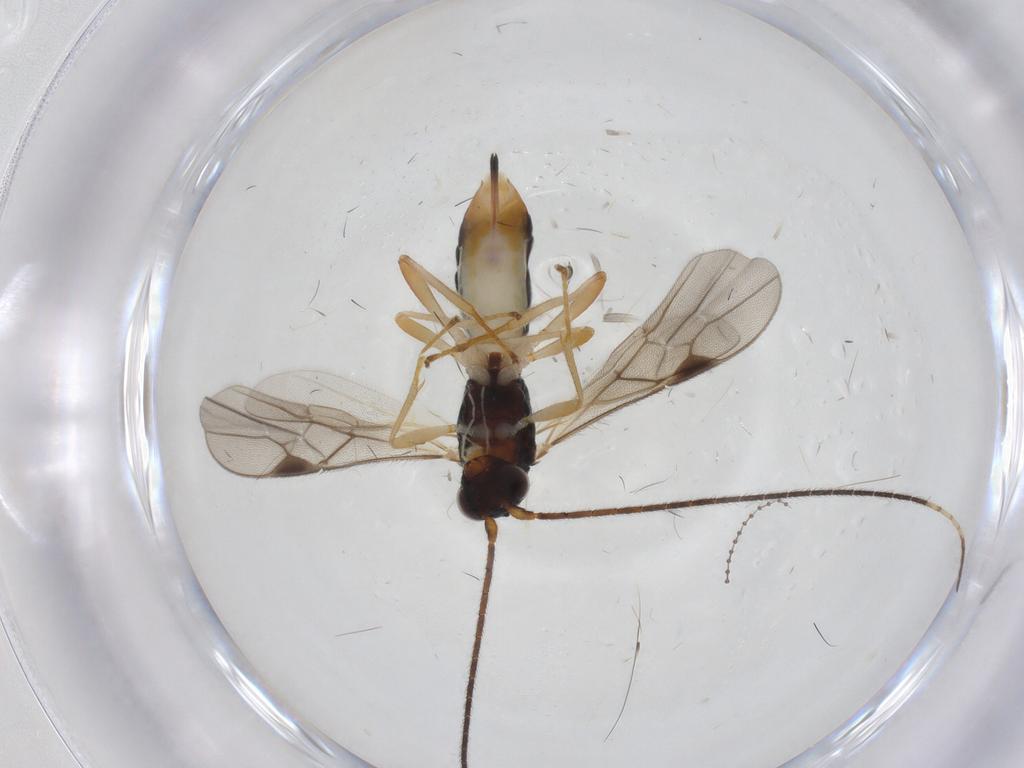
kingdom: Animalia
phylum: Arthropoda
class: Insecta
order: Hymenoptera
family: Braconidae
